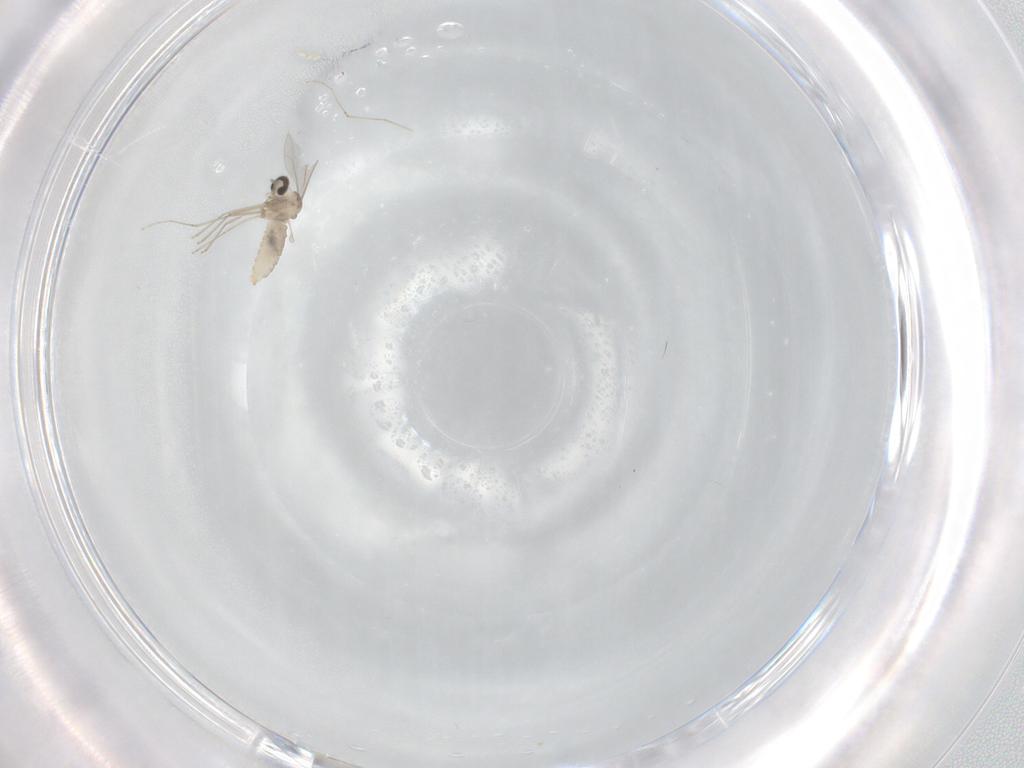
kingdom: Animalia
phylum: Arthropoda
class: Insecta
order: Diptera
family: Cecidomyiidae
